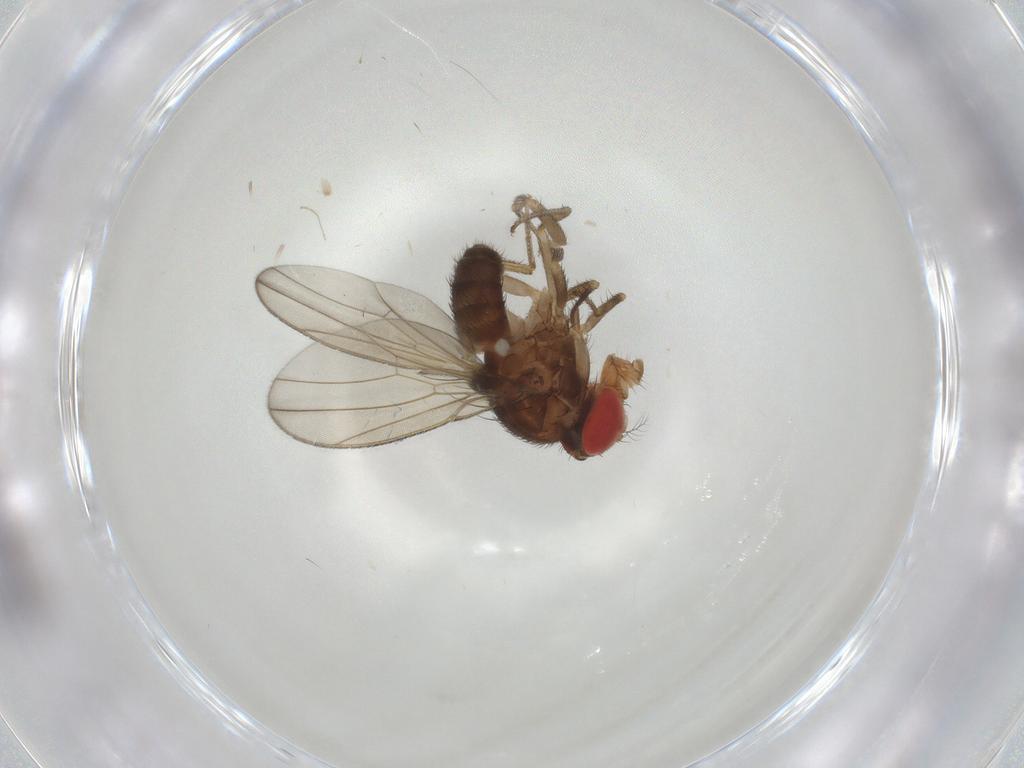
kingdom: Animalia
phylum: Arthropoda
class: Insecta
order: Diptera
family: Drosophilidae
